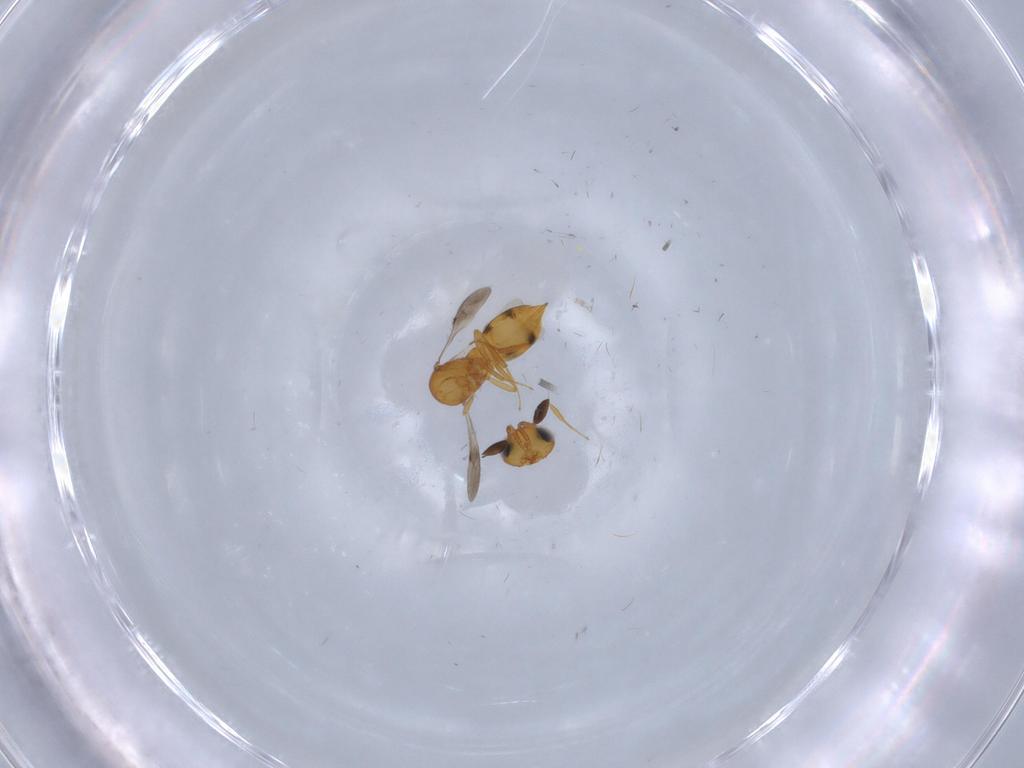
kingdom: Animalia
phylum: Arthropoda
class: Insecta
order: Hymenoptera
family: Scelionidae
